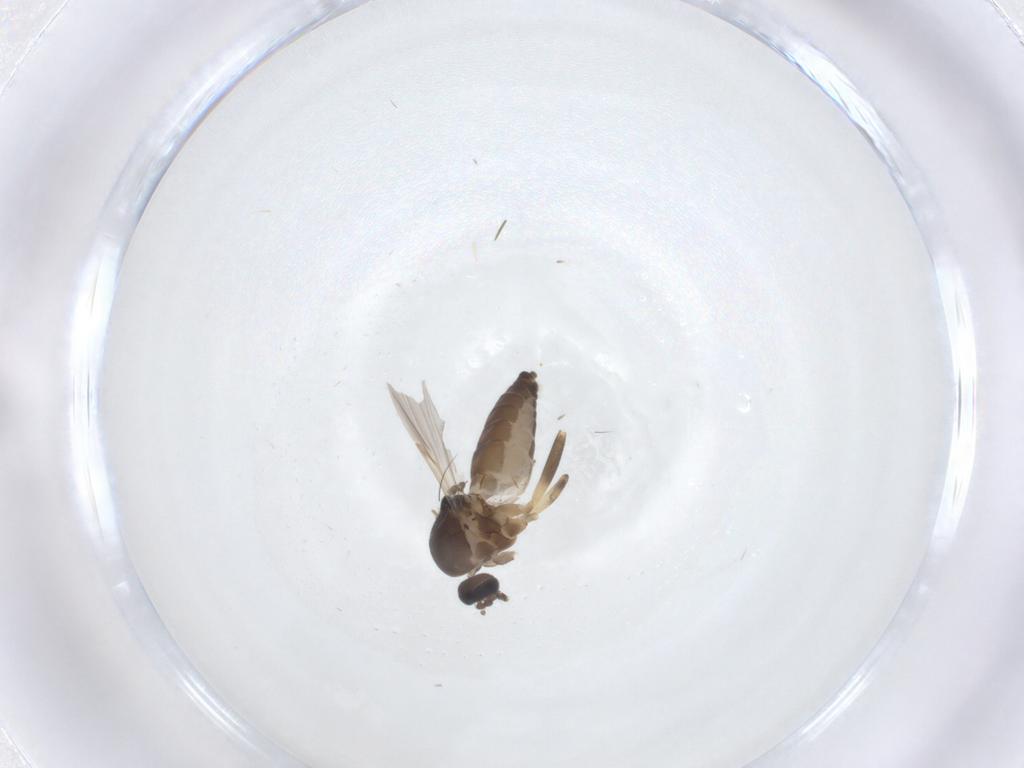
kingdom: Animalia
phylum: Arthropoda
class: Insecta
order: Diptera
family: Ceratopogonidae
